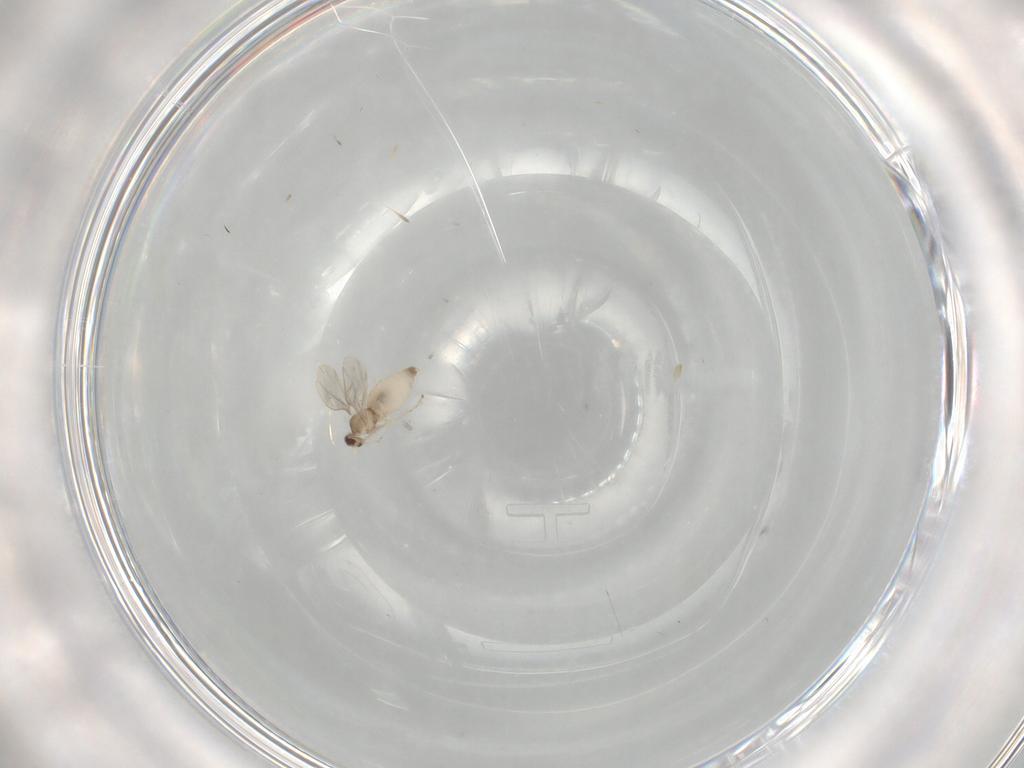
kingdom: Animalia
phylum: Arthropoda
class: Insecta
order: Diptera
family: Cecidomyiidae
